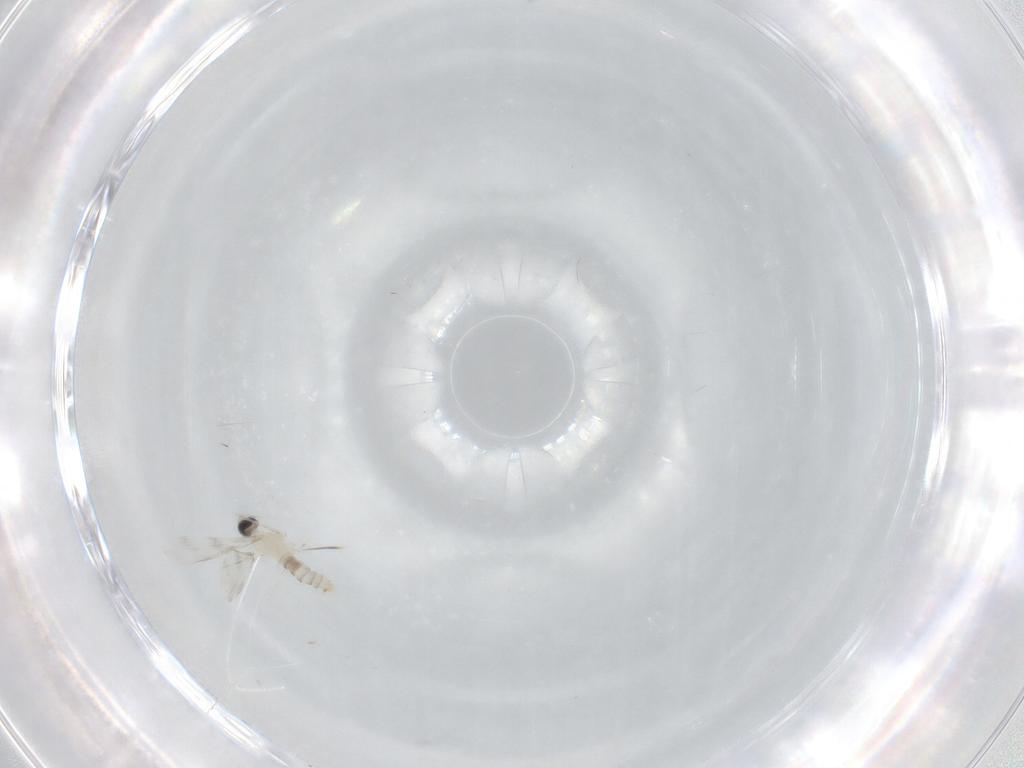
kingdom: Animalia
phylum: Arthropoda
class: Insecta
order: Diptera
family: Cecidomyiidae
